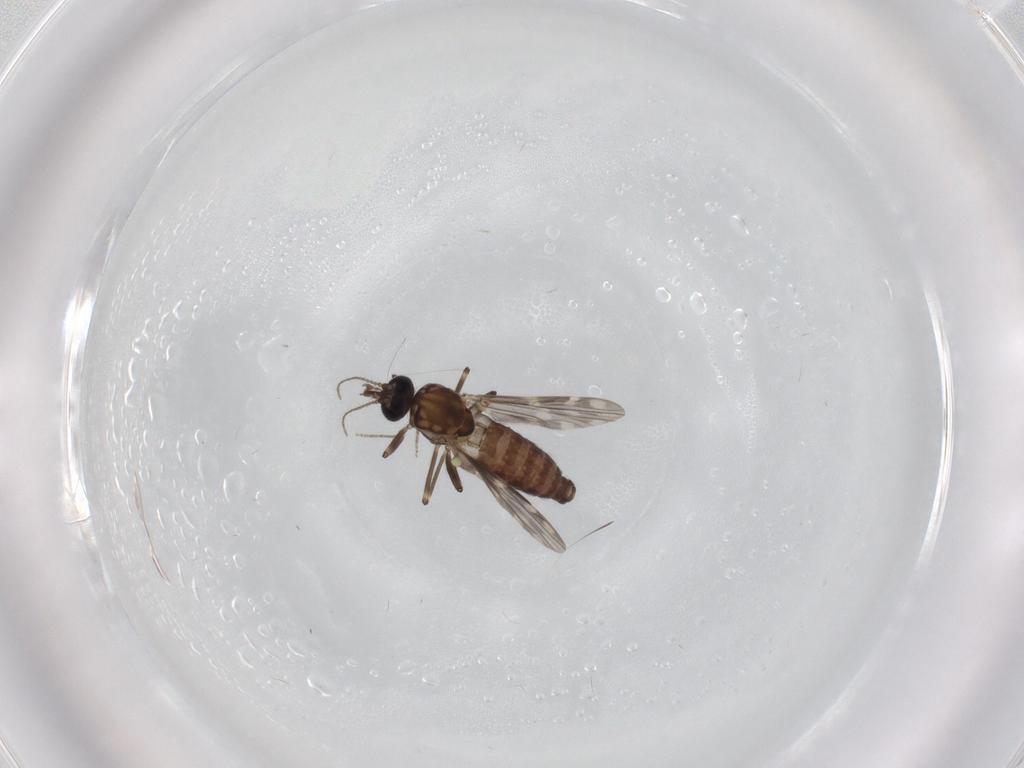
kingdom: Animalia
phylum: Arthropoda
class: Insecta
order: Diptera
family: Ceratopogonidae
